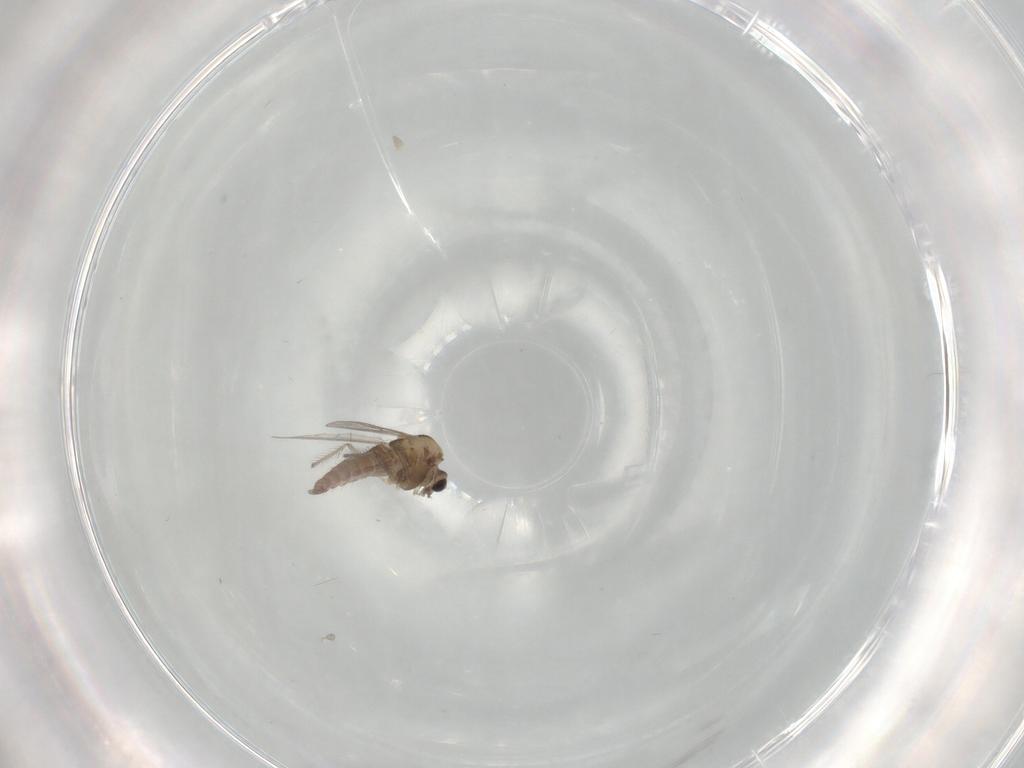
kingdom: Animalia
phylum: Arthropoda
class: Insecta
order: Diptera
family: Chironomidae
